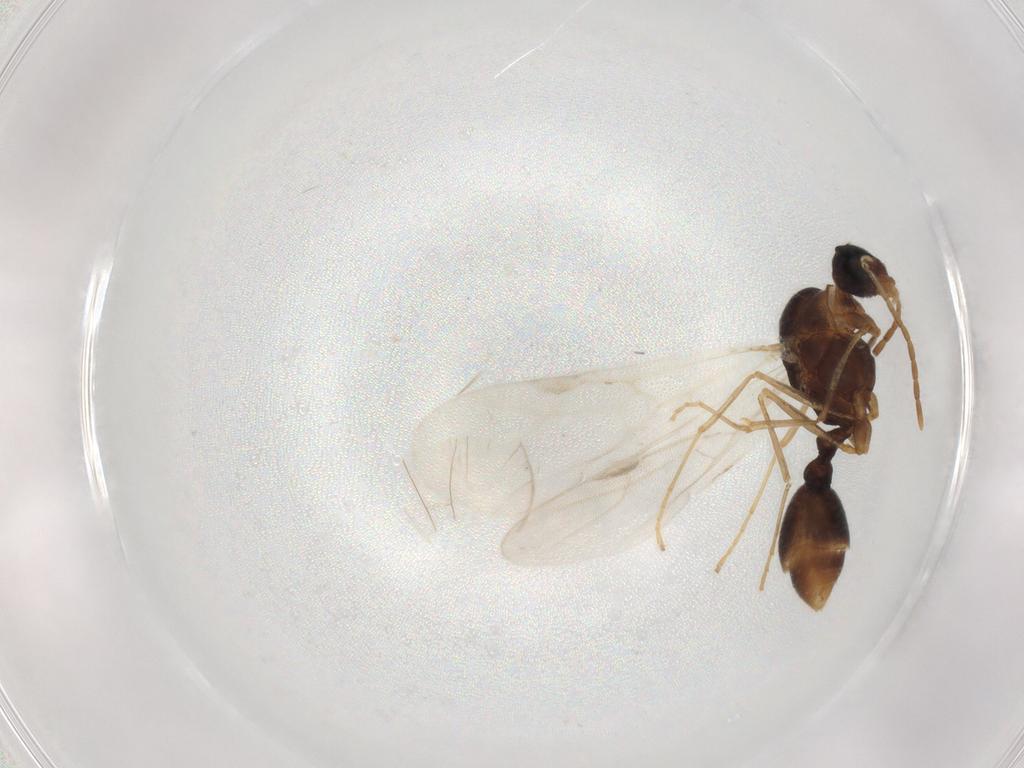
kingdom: Animalia
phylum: Arthropoda
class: Insecta
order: Hymenoptera
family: Formicidae
